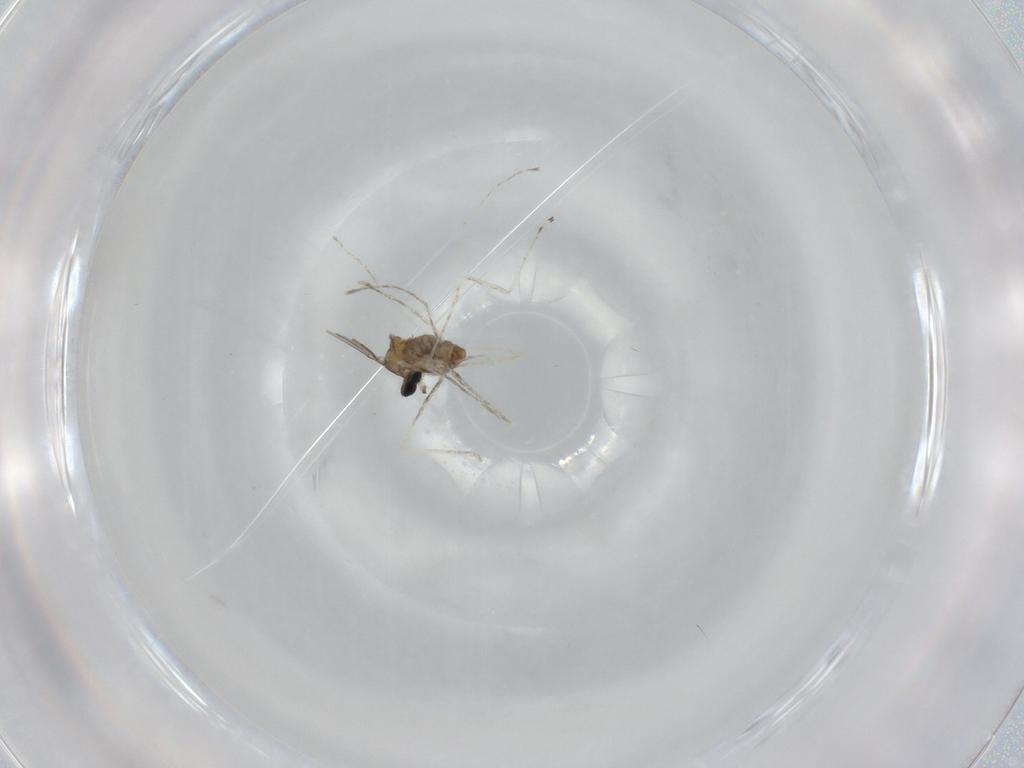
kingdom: Animalia
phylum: Arthropoda
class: Insecta
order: Diptera
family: Cecidomyiidae
